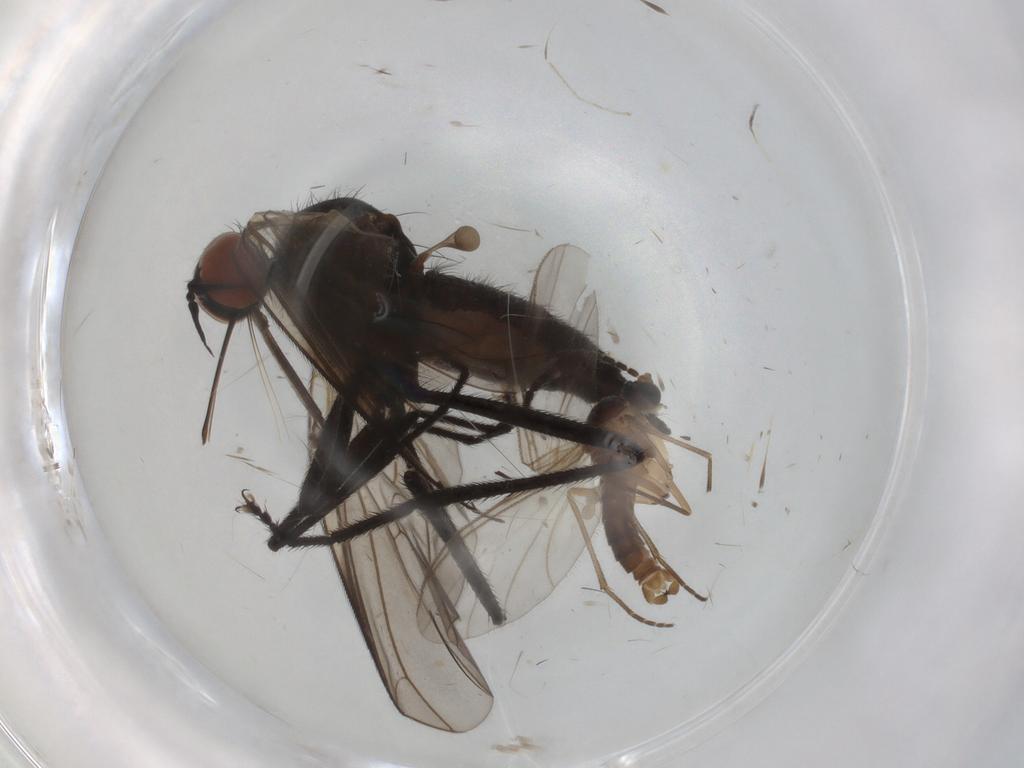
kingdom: Animalia
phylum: Arthropoda
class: Insecta
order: Diptera
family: Sciaridae
